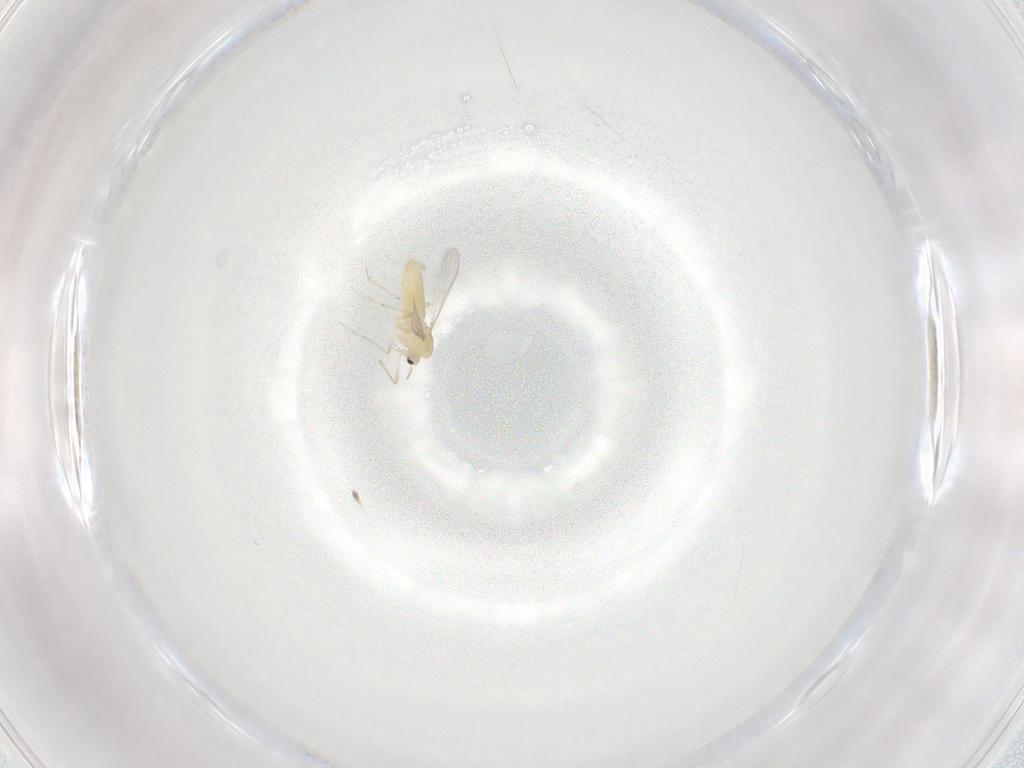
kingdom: Animalia
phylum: Arthropoda
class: Insecta
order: Diptera
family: Chironomidae
